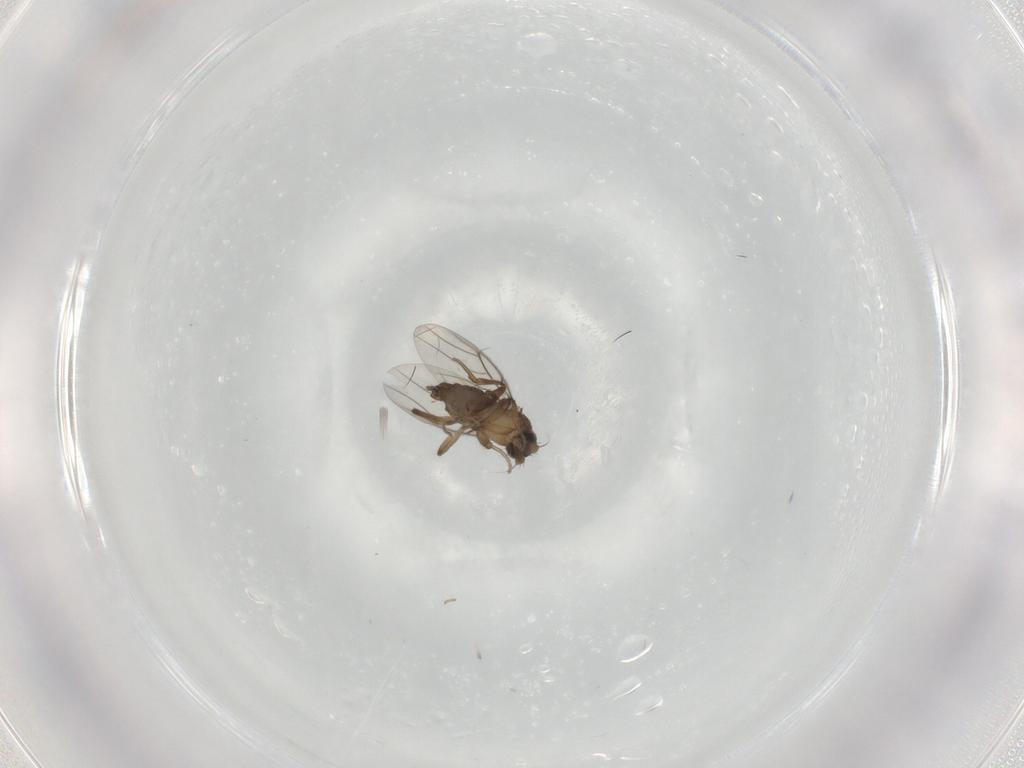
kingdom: Animalia
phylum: Arthropoda
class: Insecta
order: Diptera
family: Phoridae
